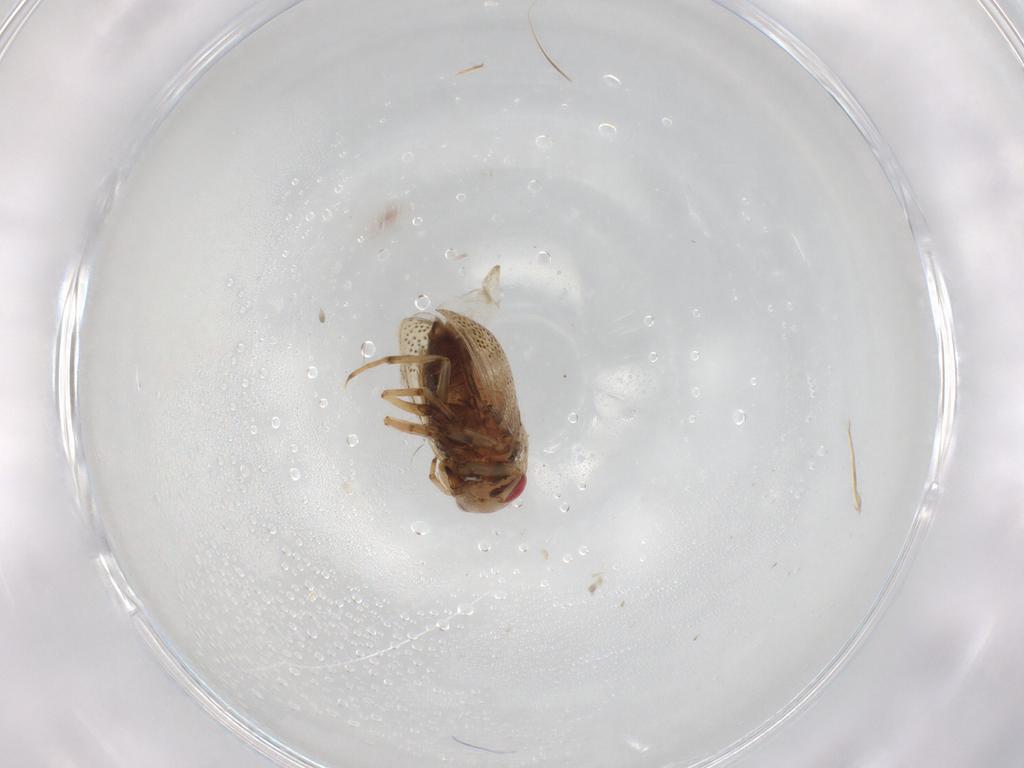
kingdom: Animalia
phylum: Arthropoda
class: Insecta
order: Hemiptera
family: Pleidae
